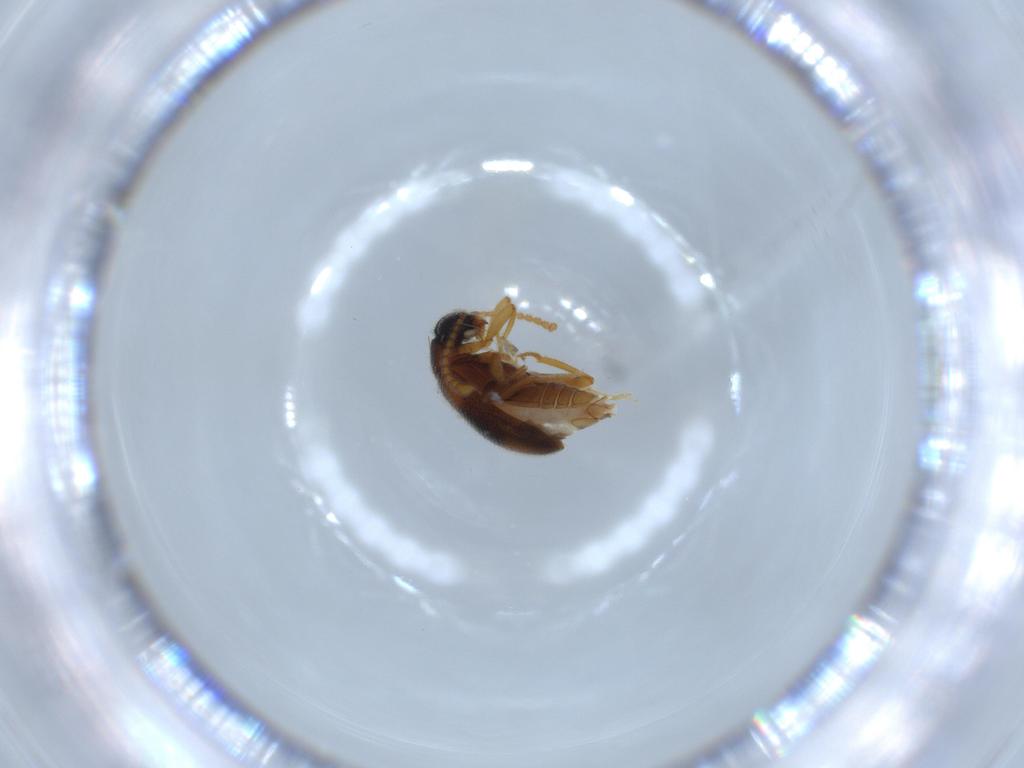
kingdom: Animalia
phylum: Arthropoda
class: Insecta
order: Coleoptera
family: Aderidae
